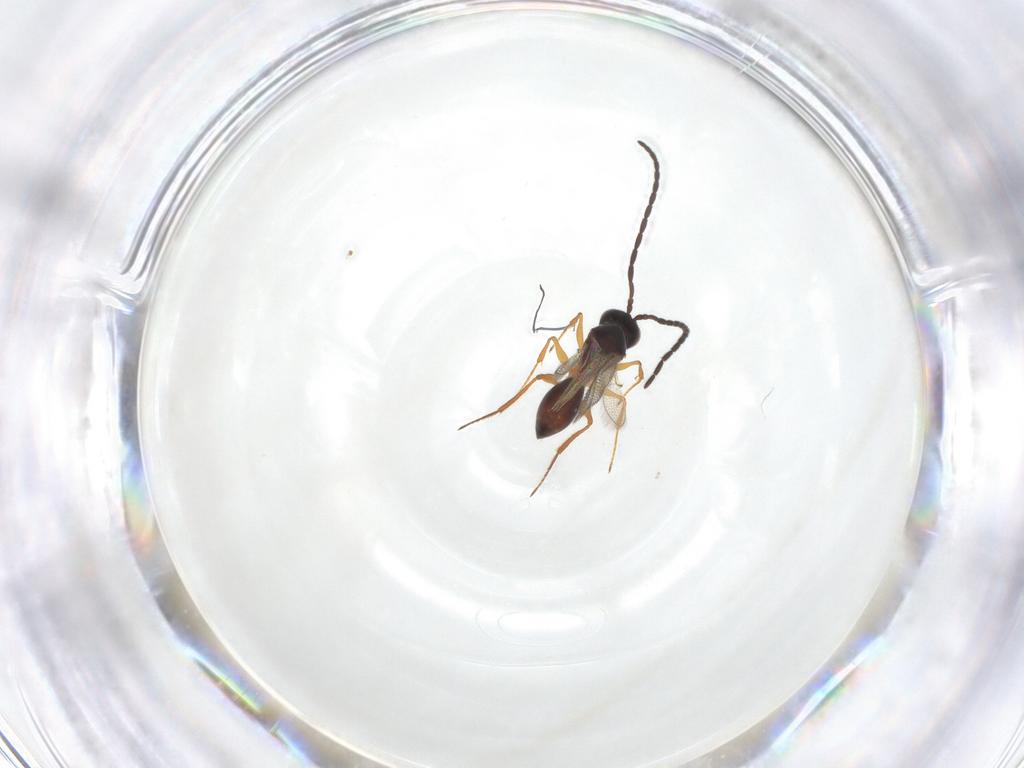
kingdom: Animalia
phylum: Arthropoda
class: Insecta
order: Hymenoptera
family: Figitidae
